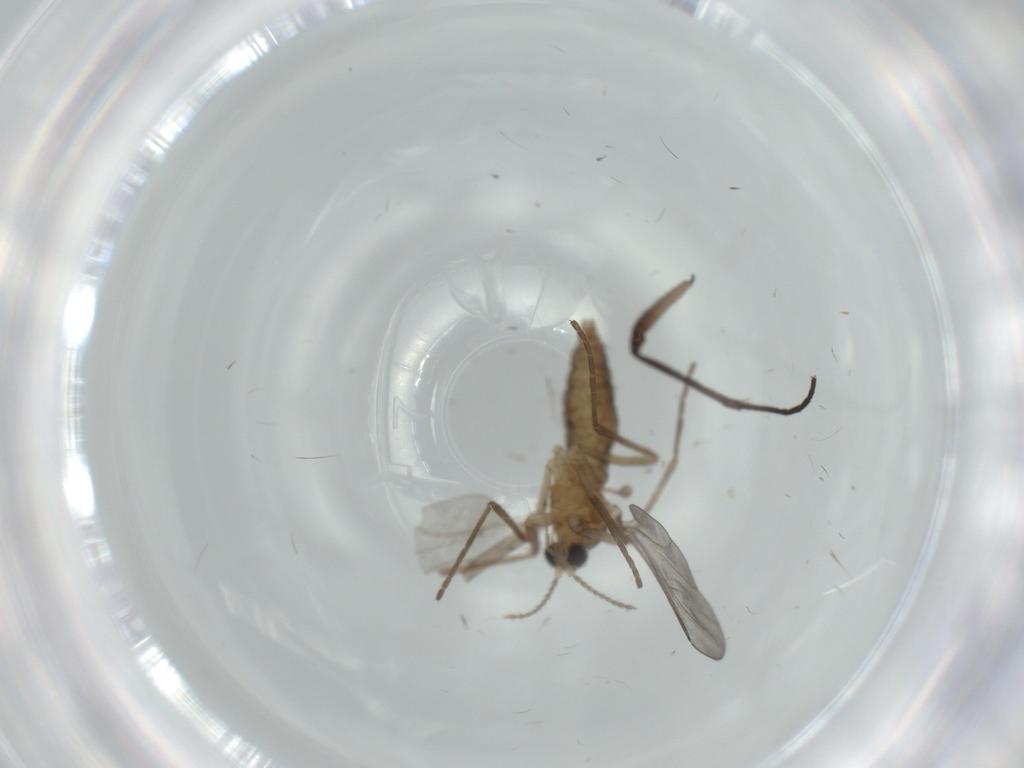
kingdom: Animalia
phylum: Arthropoda
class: Insecta
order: Diptera
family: Sciaridae
